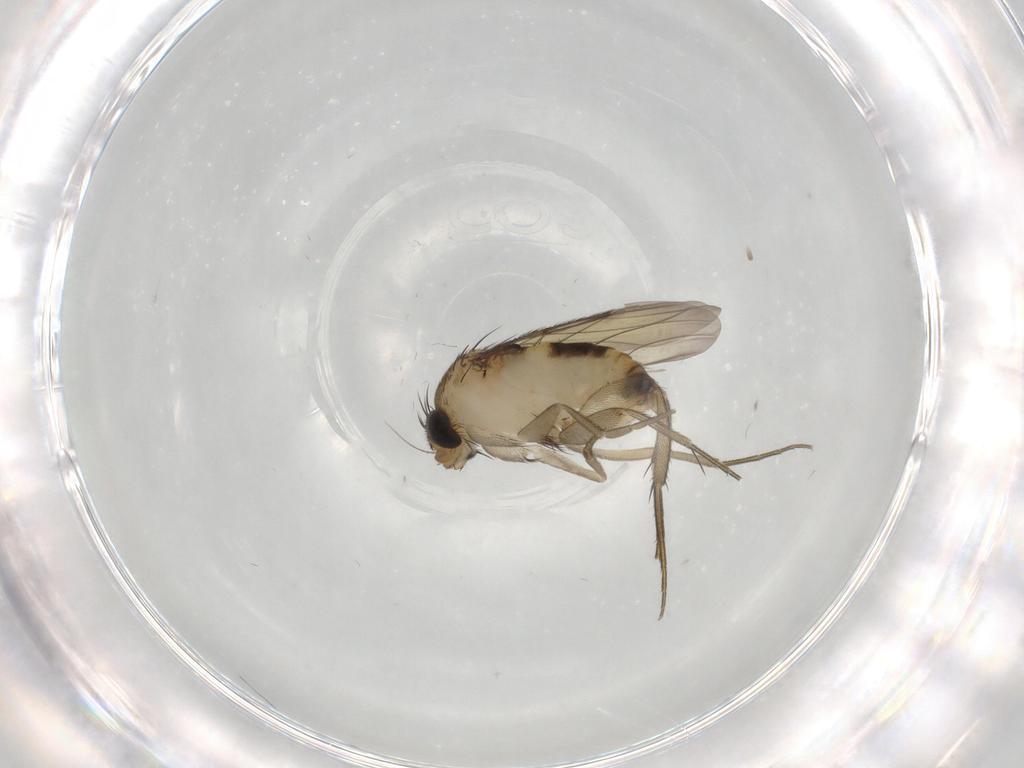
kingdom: Animalia
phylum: Arthropoda
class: Insecta
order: Diptera
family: Phoridae
